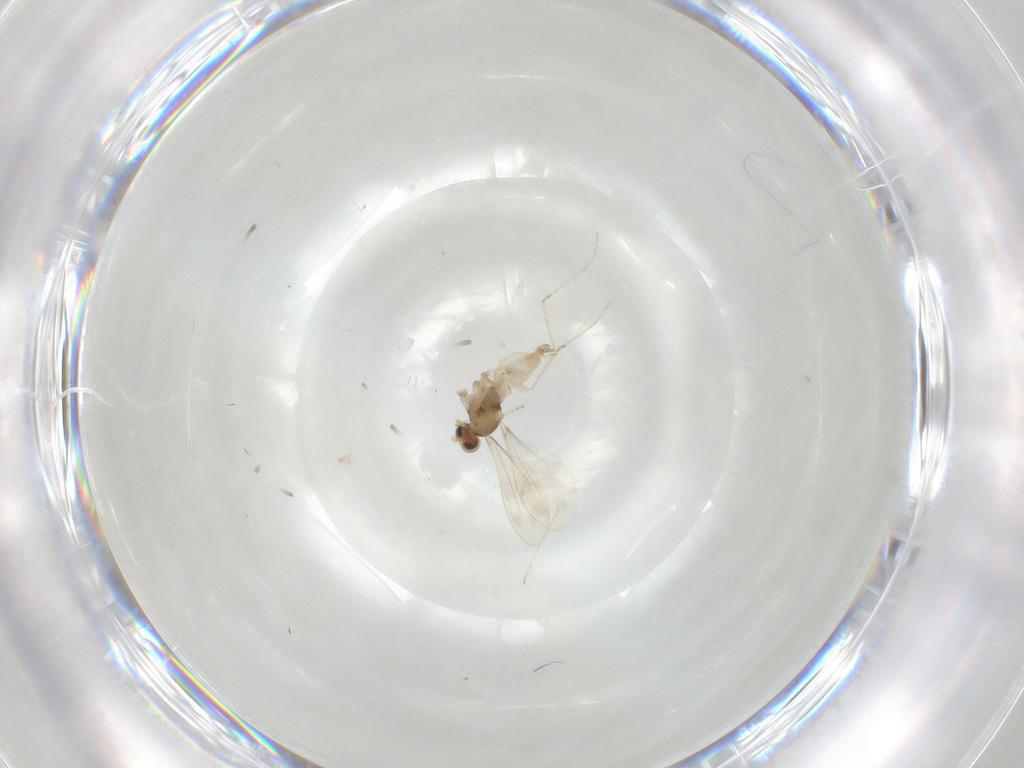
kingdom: Animalia
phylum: Arthropoda
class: Insecta
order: Diptera
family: Cecidomyiidae
